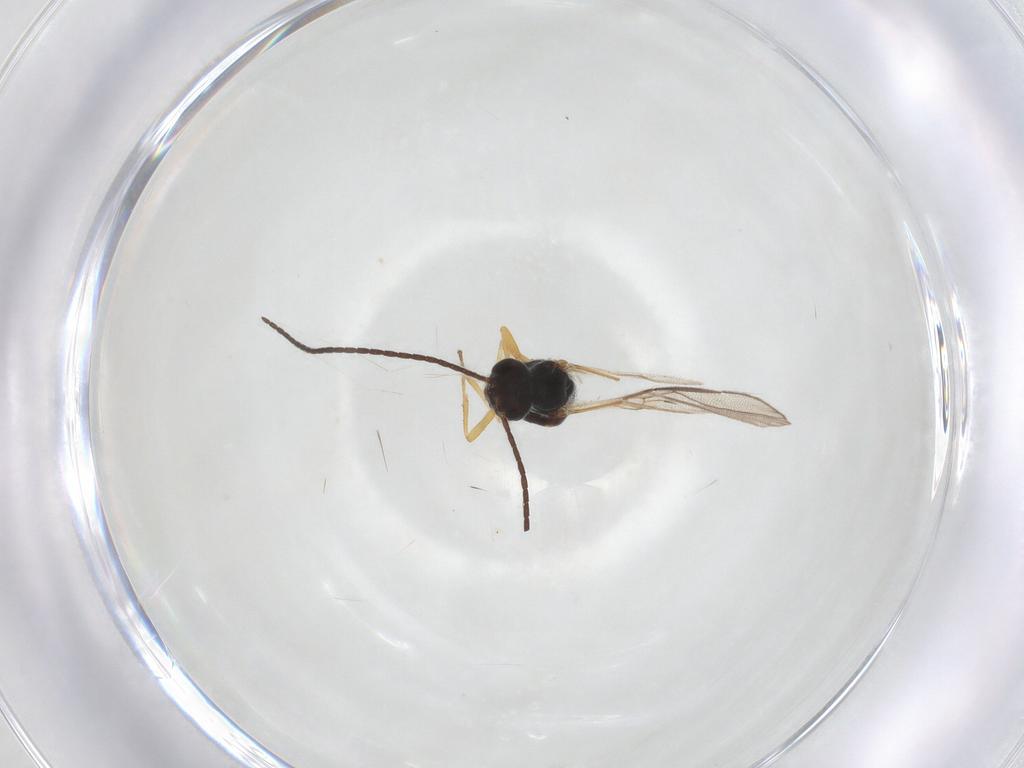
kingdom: Animalia
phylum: Arthropoda
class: Insecta
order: Hymenoptera
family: Braconidae
